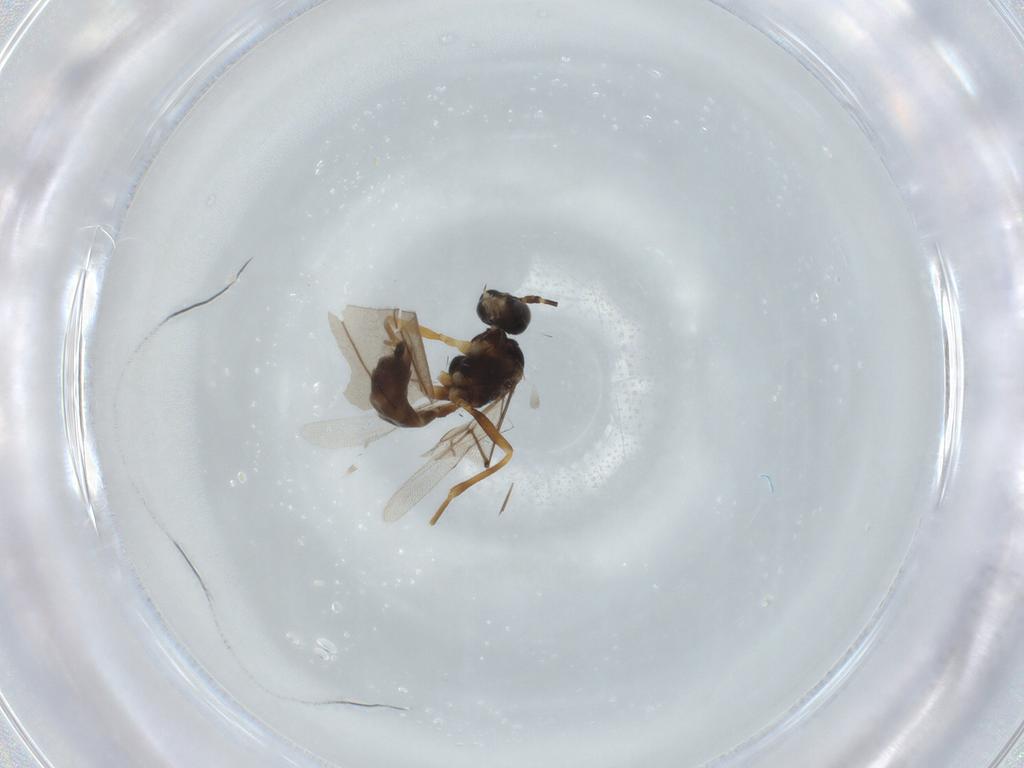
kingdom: Animalia
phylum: Arthropoda
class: Insecta
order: Hymenoptera
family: Braconidae
